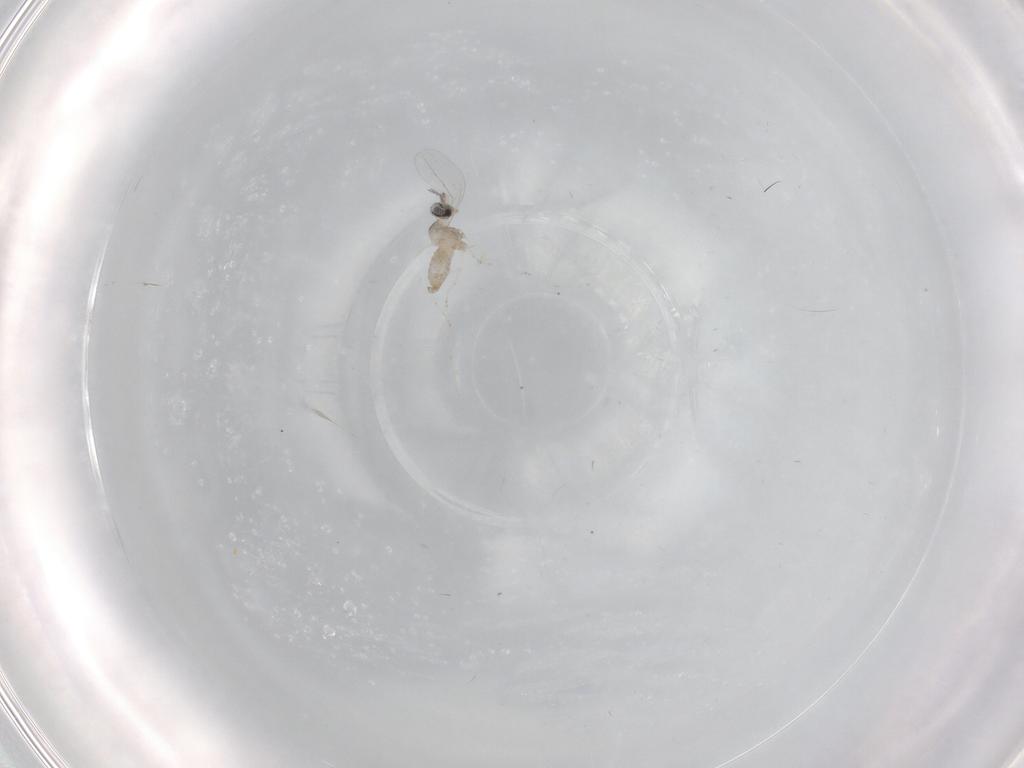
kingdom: Animalia
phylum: Arthropoda
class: Insecta
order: Diptera
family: Cecidomyiidae
